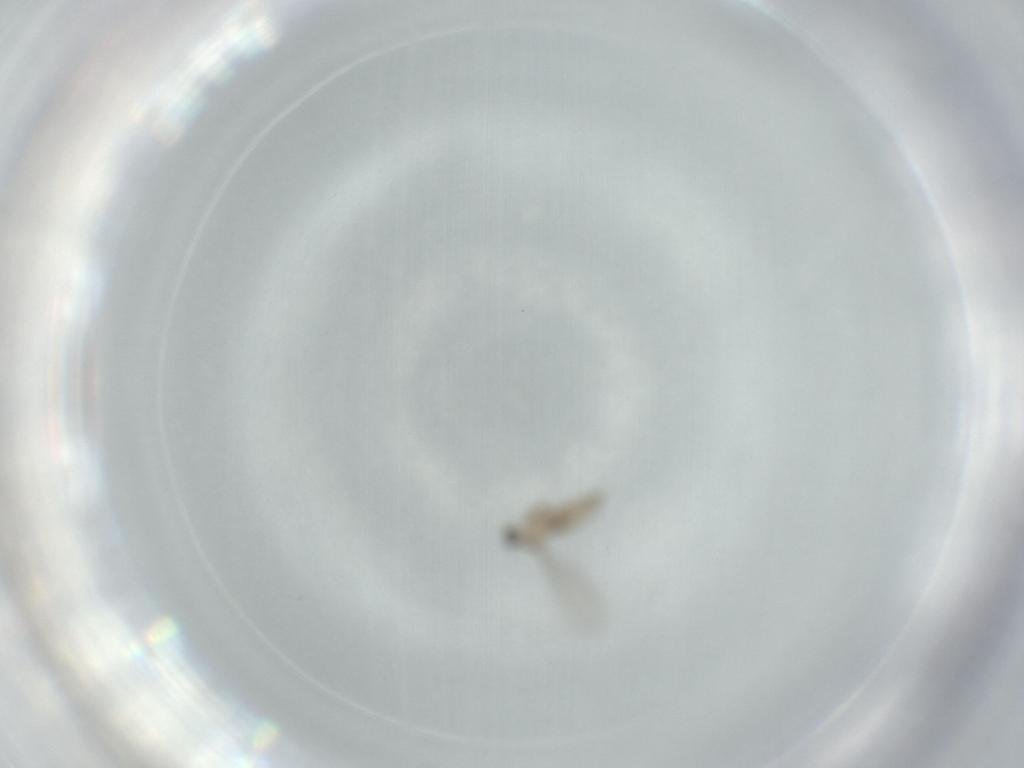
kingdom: Animalia
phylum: Arthropoda
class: Insecta
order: Diptera
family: Cecidomyiidae
